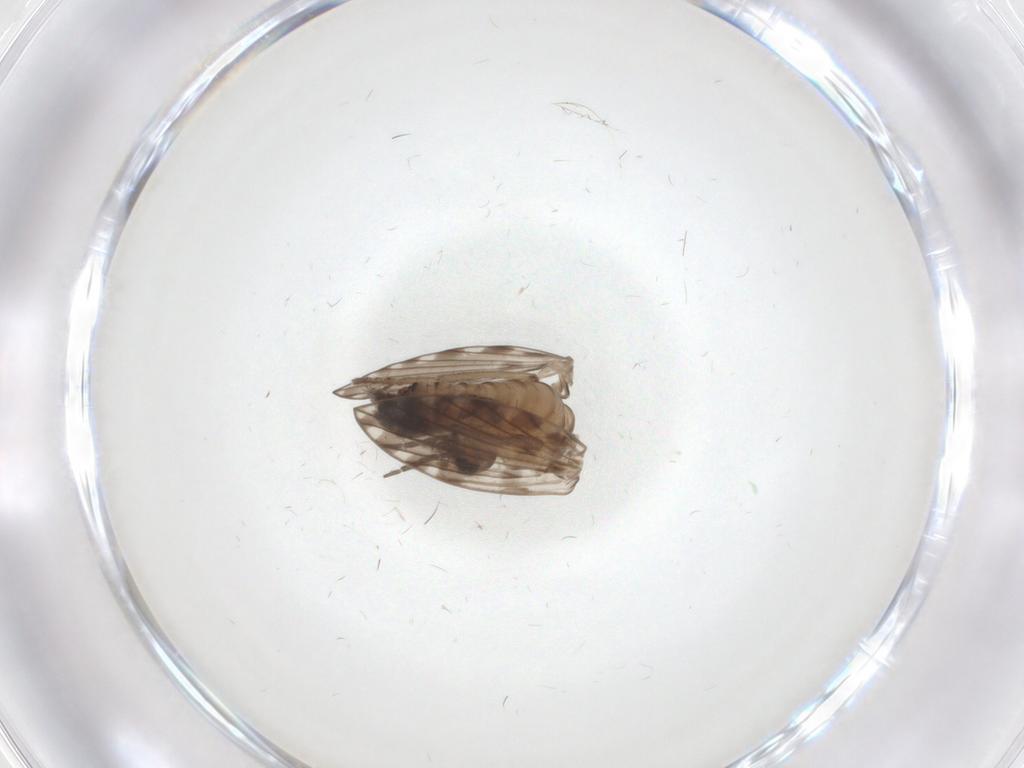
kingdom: Animalia
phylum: Arthropoda
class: Insecta
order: Diptera
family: Psychodidae
